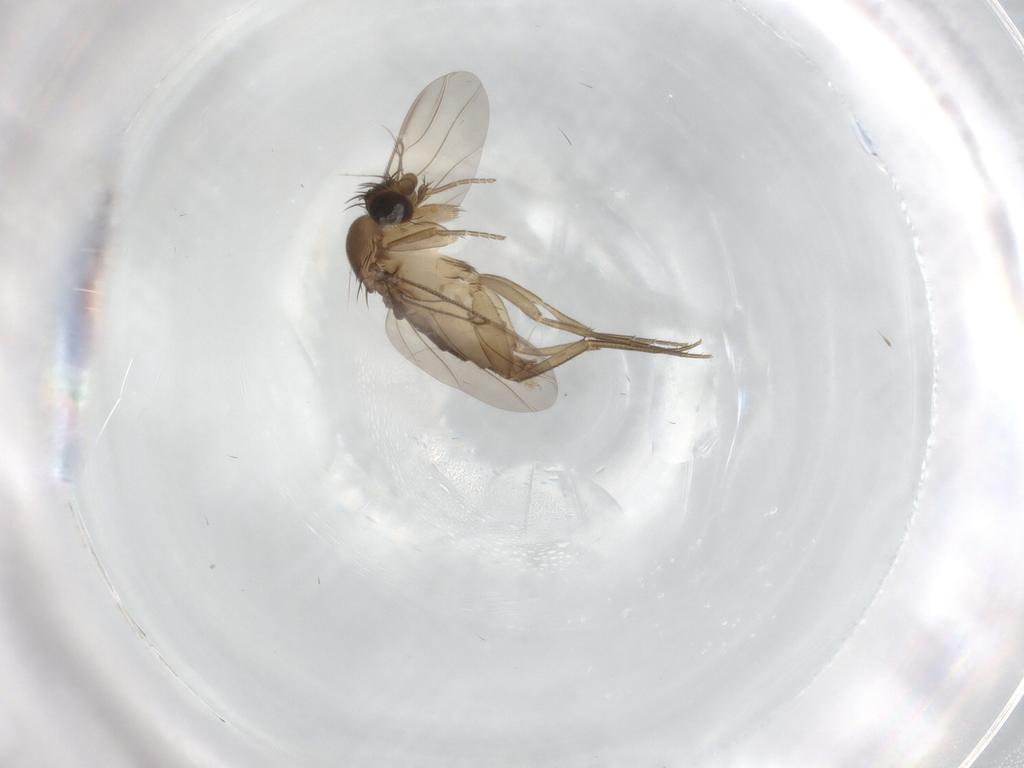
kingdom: Animalia
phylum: Arthropoda
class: Insecta
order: Diptera
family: Phoridae
